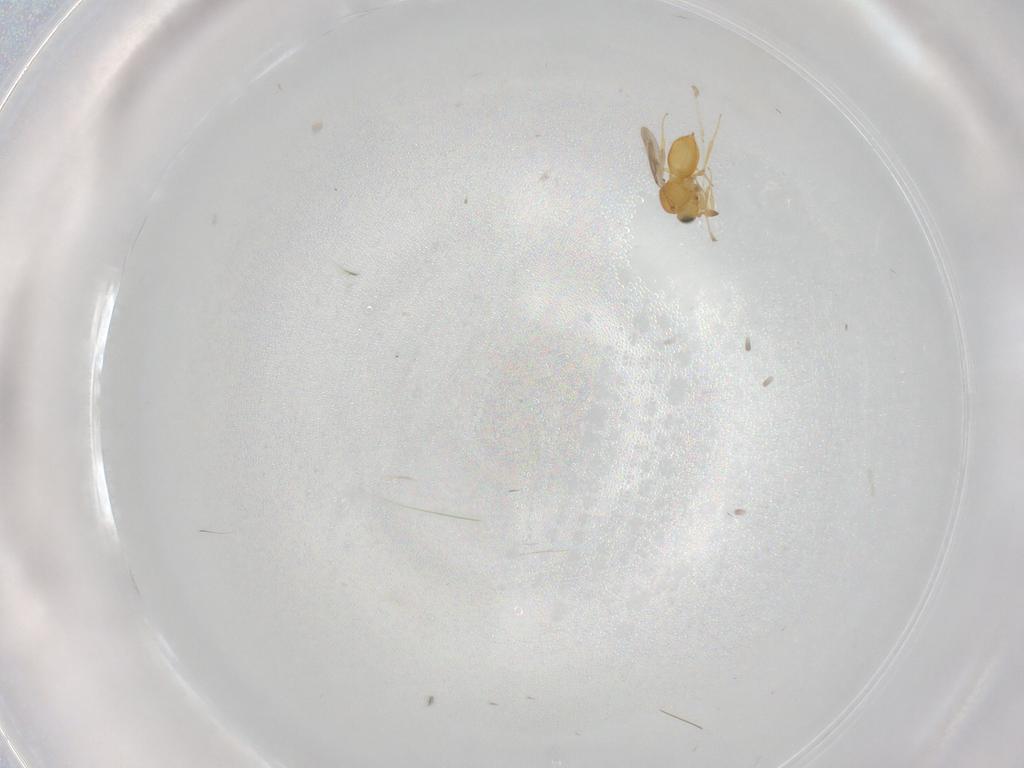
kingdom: Animalia
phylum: Arthropoda
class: Insecta
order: Hymenoptera
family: Scelionidae
